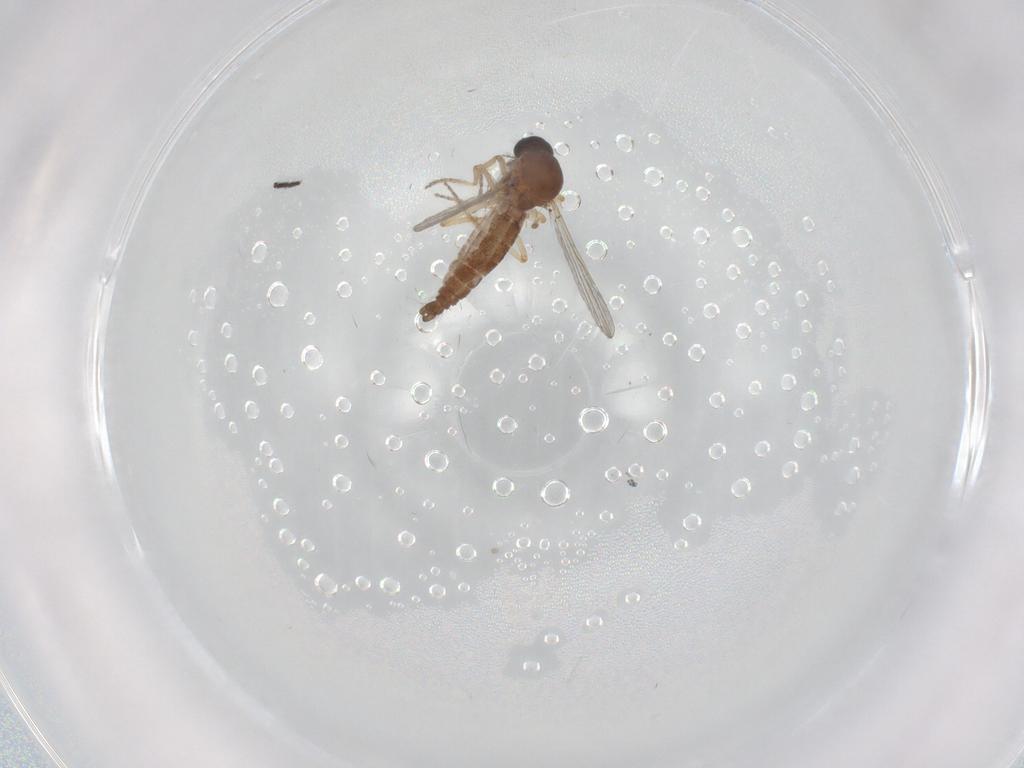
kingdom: Animalia
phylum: Arthropoda
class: Insecta
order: Diptera
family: Ceratopogonidae
